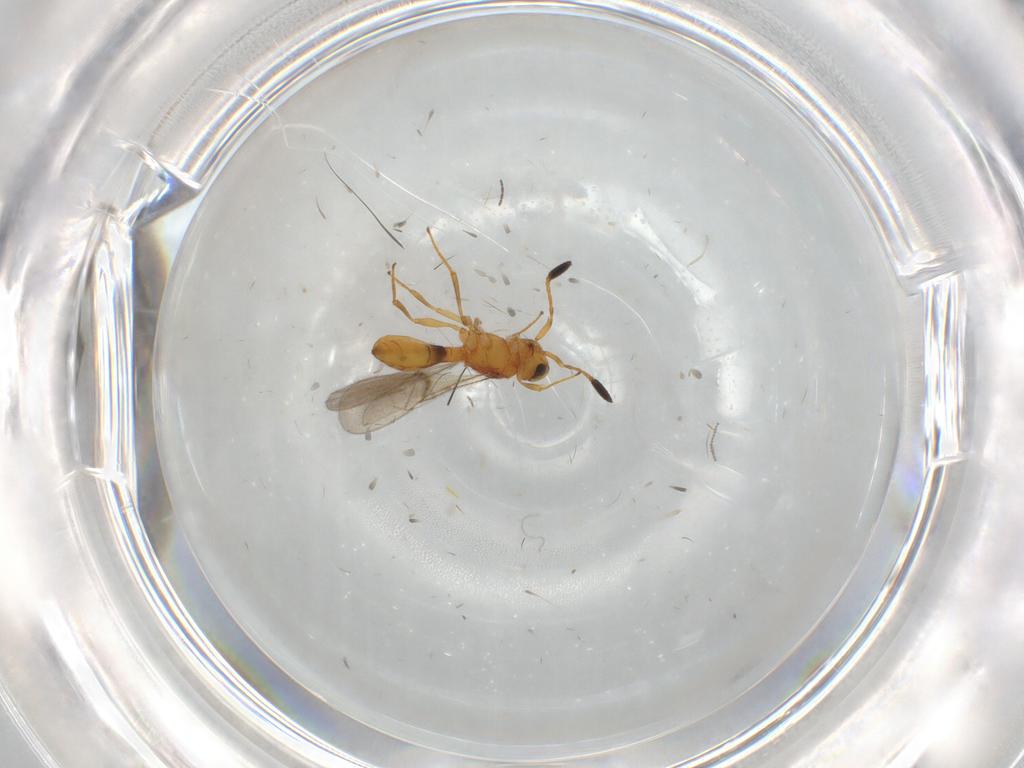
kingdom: Animalia
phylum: Arthropoda
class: Insecta
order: Hymenoptera
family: Scelionidae
